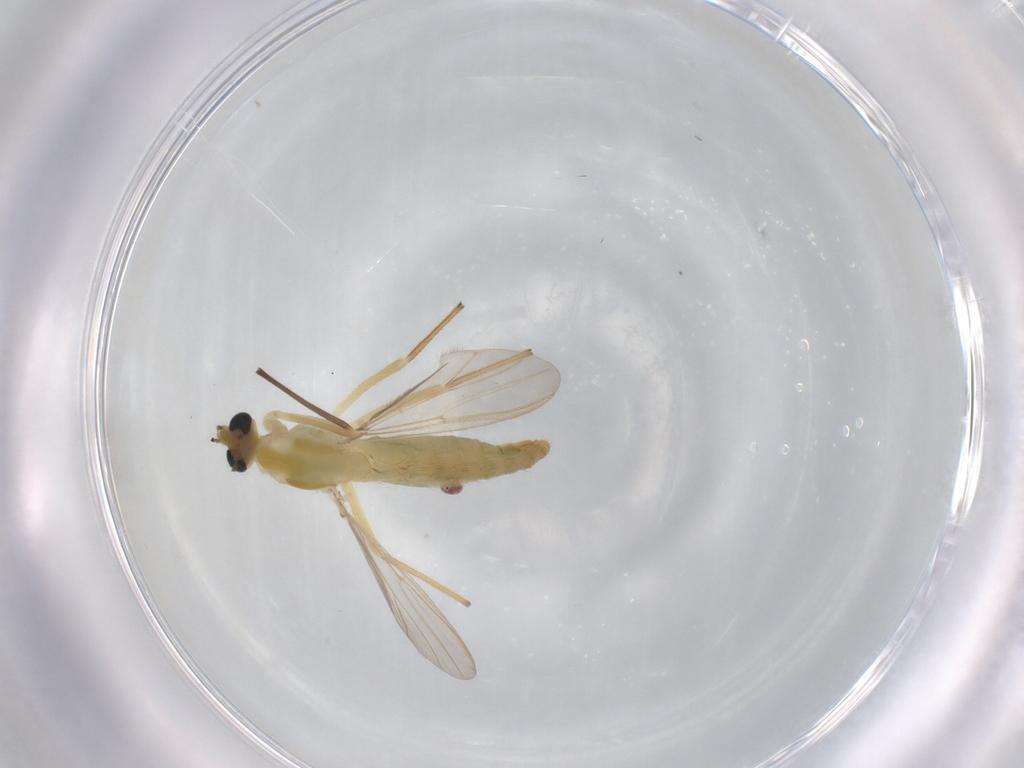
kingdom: Animalia
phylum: Arthropoda
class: Insecta
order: Diptera
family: Chironomidae
